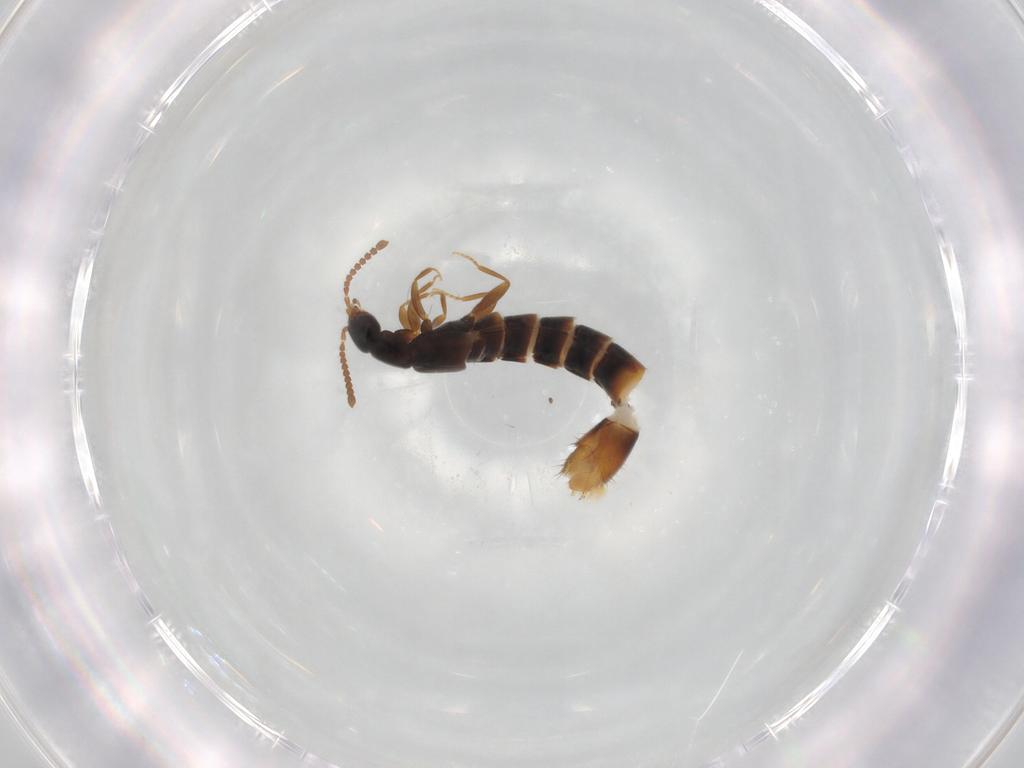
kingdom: Animalia
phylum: Arthropoda
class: Insecta
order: Coleoptera
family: Staphylinidae
